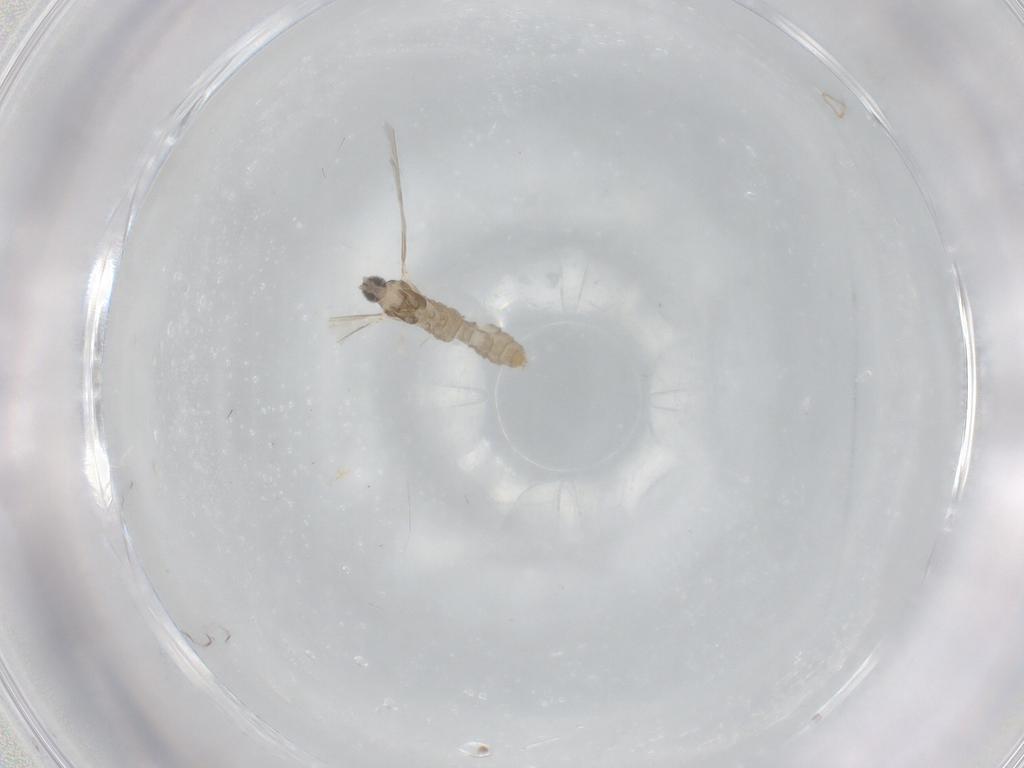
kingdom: Animalia
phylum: Arthropoda
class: Insecta
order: Diptera
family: Cecidomyiidae
